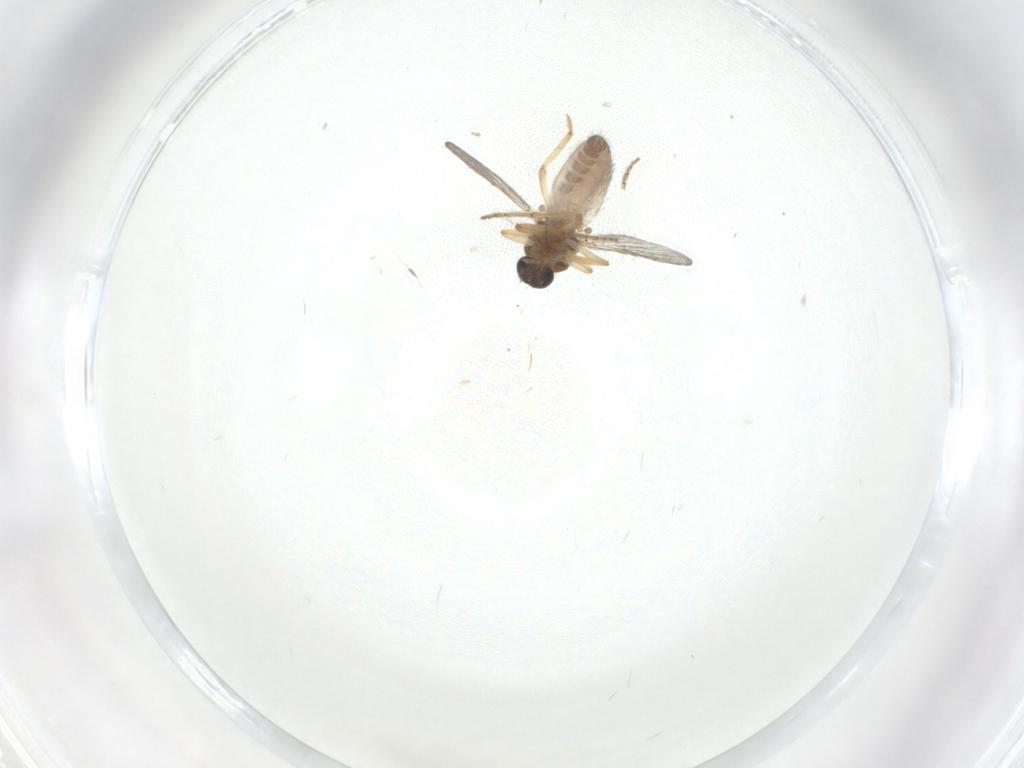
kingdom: Animalia
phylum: Arthropoda
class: Insecta
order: Diptera
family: Ceratopogonidae
